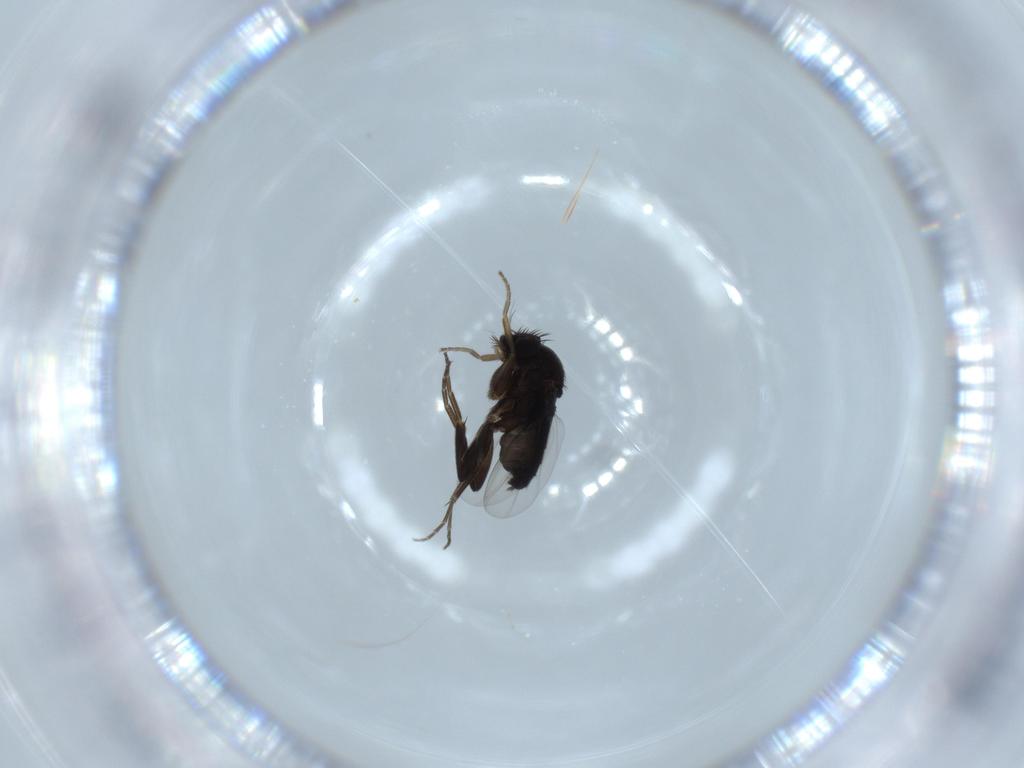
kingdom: Animalia
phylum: Arthropoda
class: Insecta
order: Diptera
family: Phoridae
